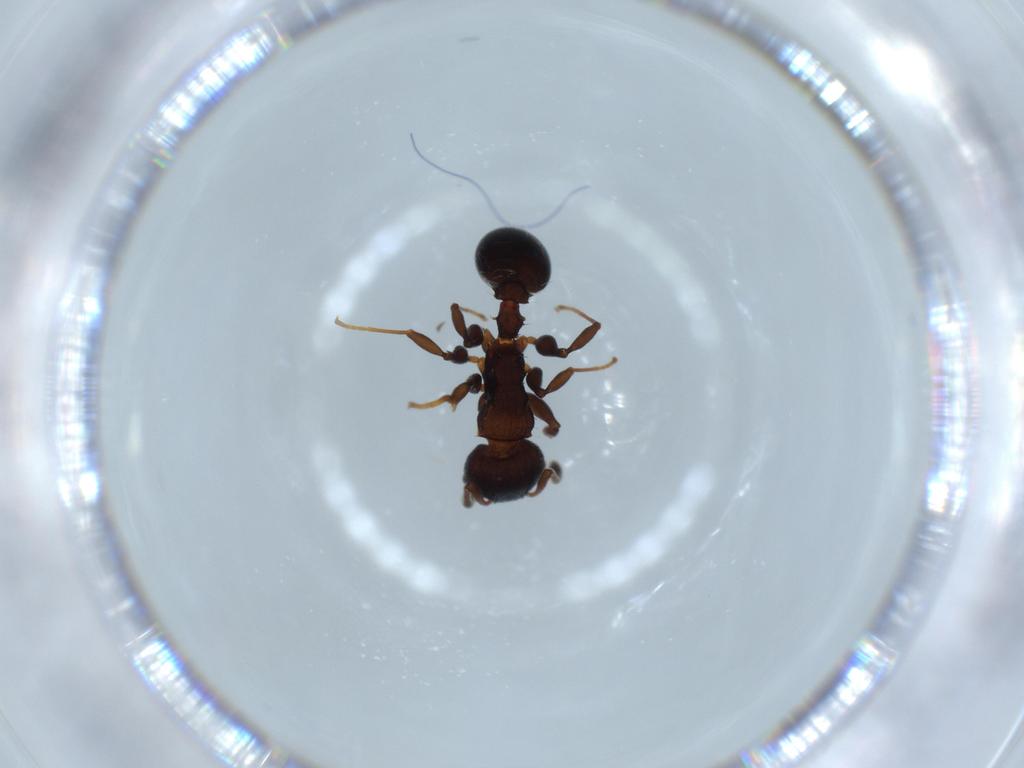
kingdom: Animalia
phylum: Arthropoda
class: Insecta
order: Hymenoptera
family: Formicidae
